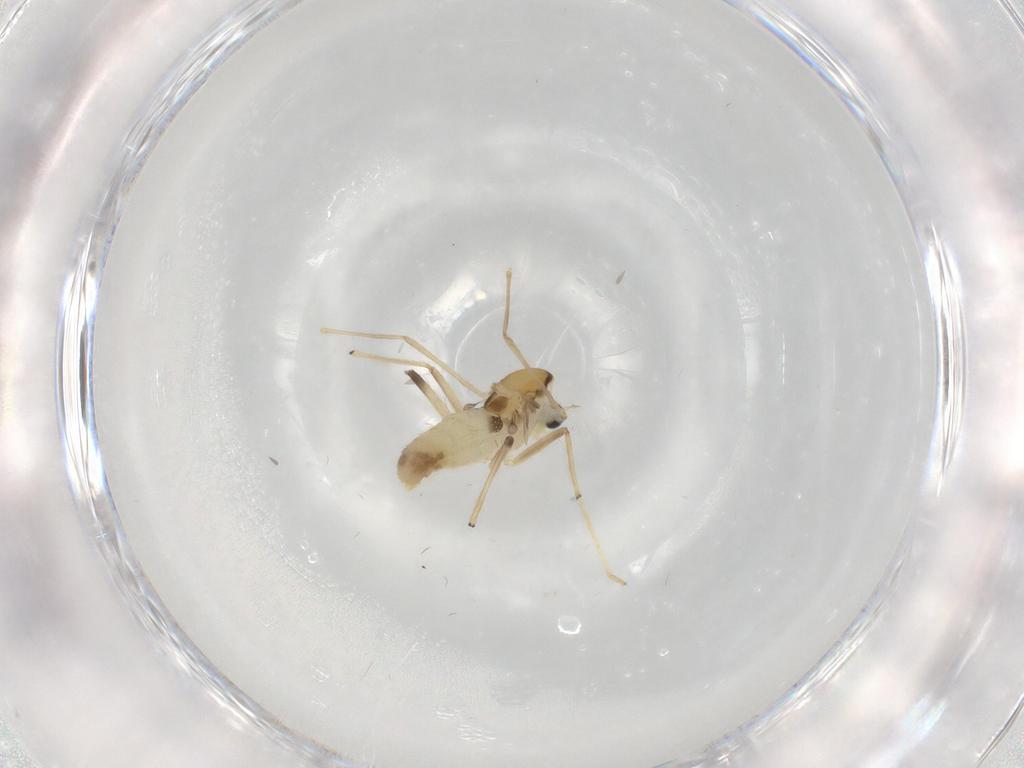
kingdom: Animalia
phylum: Arthropoda
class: Insecta
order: Diptera
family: Chironomidae
